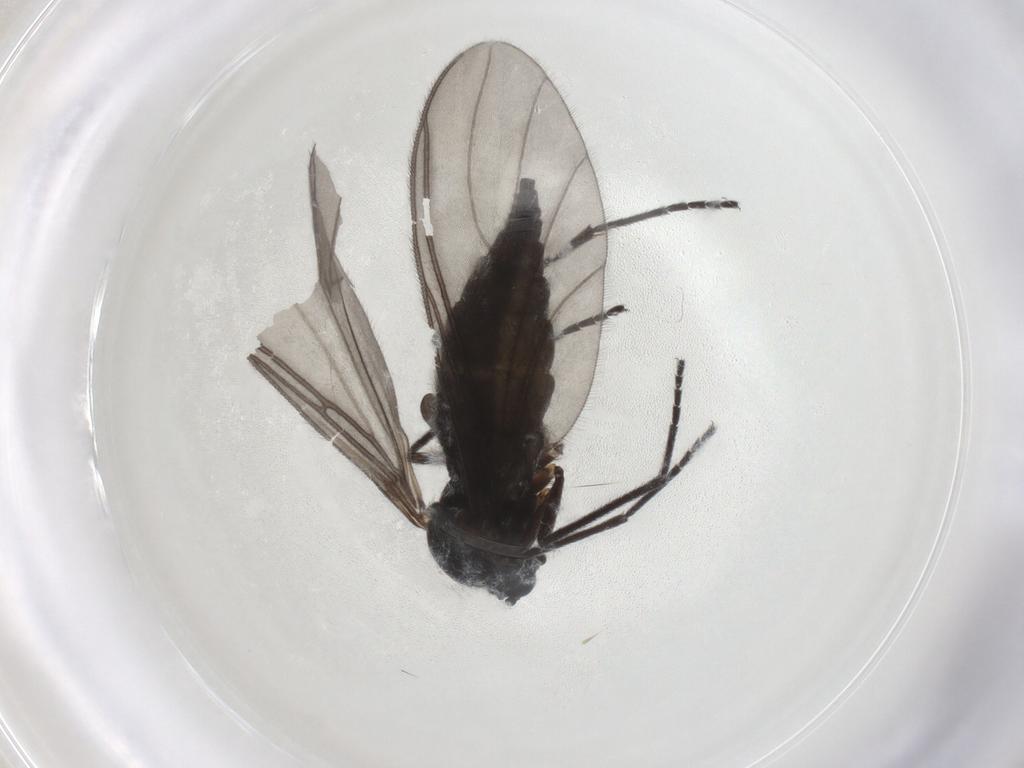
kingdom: Animalia
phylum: Arthropoda
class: Insecta
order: Diptera
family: Sciaridae
